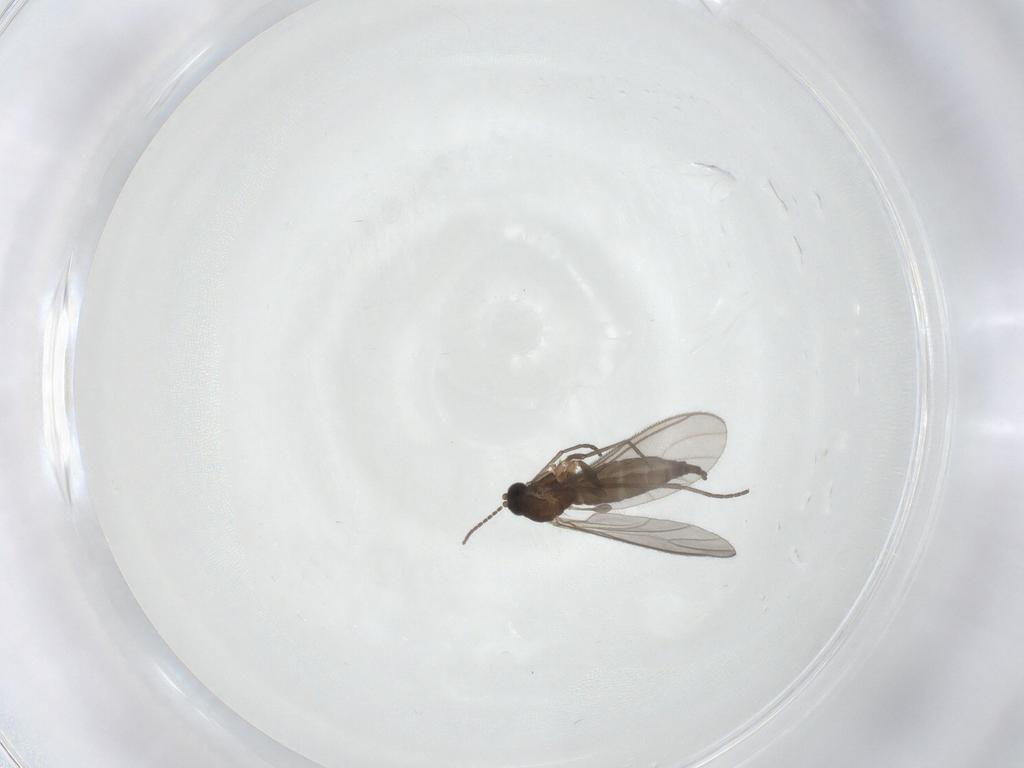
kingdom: Animalia
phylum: Arthropoda
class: Insecta
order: Diptera
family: Sciaridae
